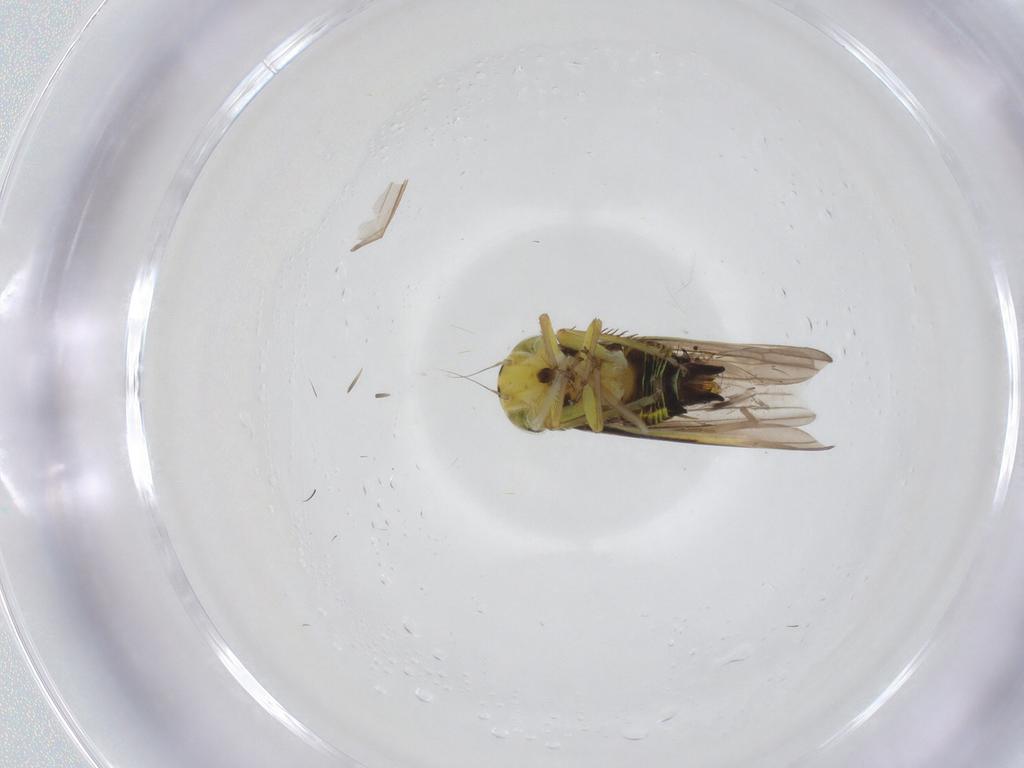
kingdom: Animalia
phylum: Arthropoda
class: Insecta
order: Hemiptera
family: Cicadellidae
